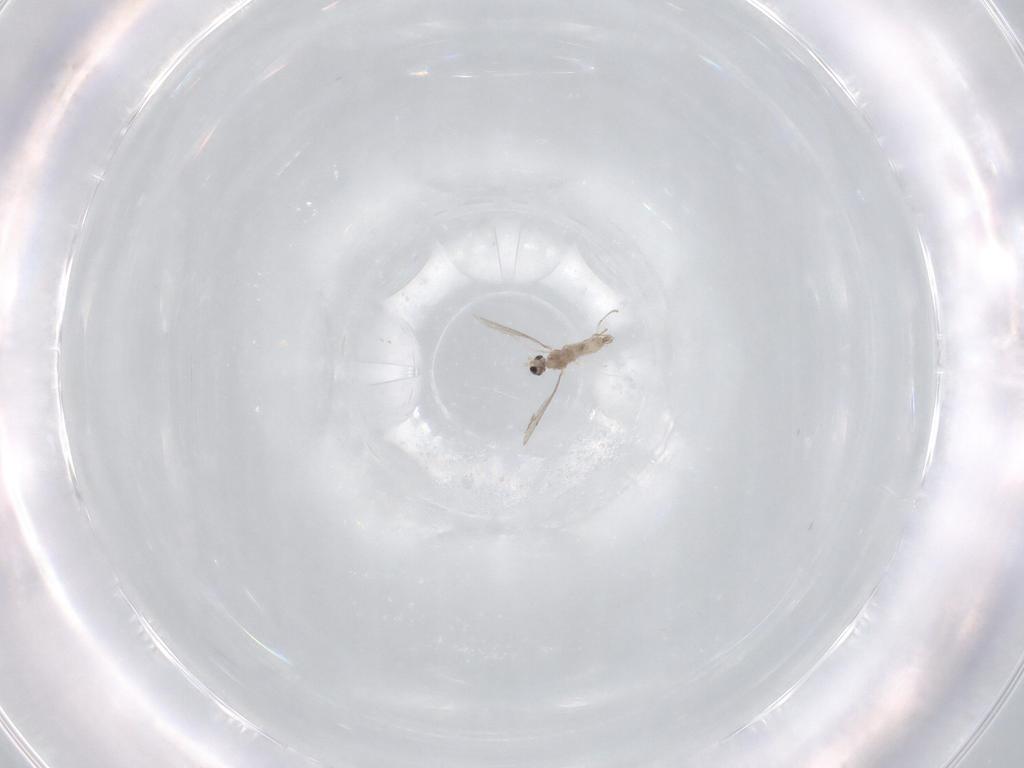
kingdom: Animalia
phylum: Arthropoda
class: Insecta
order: Diptera
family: Cecidomyiidae
